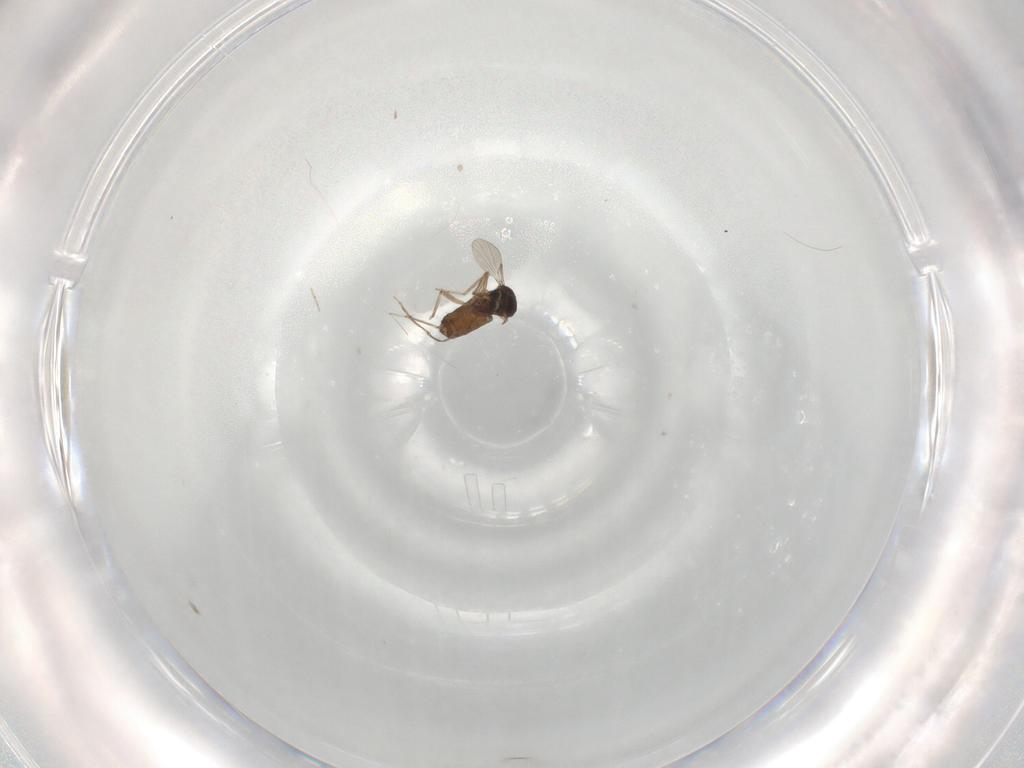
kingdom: Animalia
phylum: Arthropoda
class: Insecta
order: Diptera
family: Ceratopogonidae
